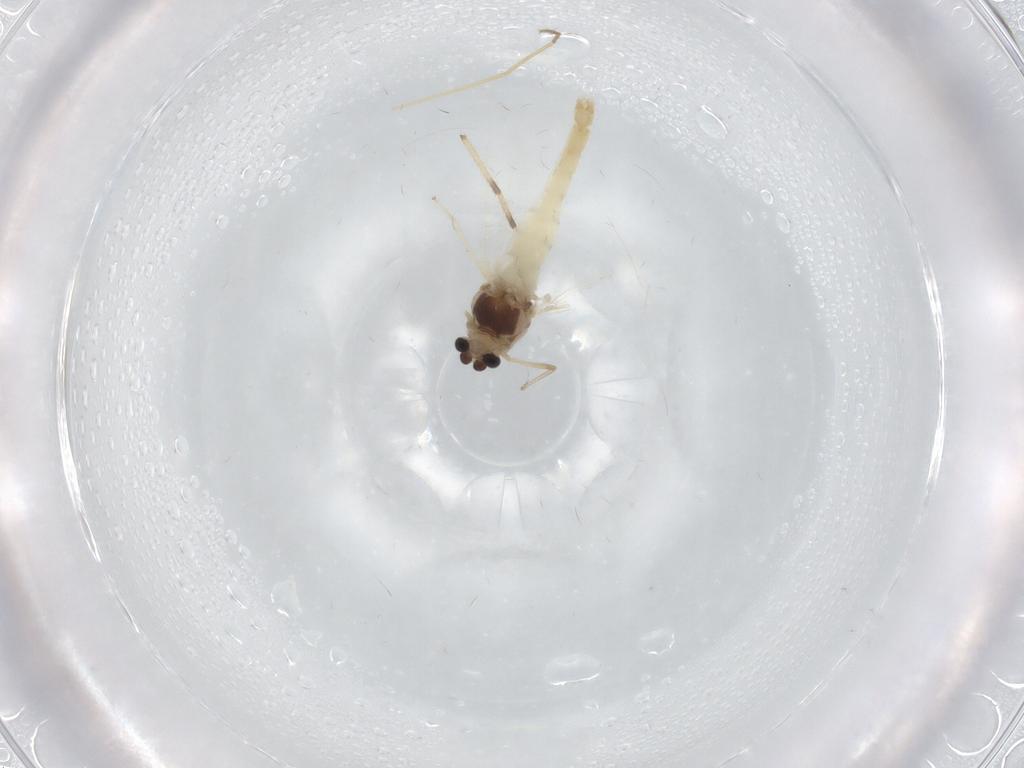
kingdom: Animalia
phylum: Arthropoda
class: Insecta
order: Diptera
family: Chironomidae
